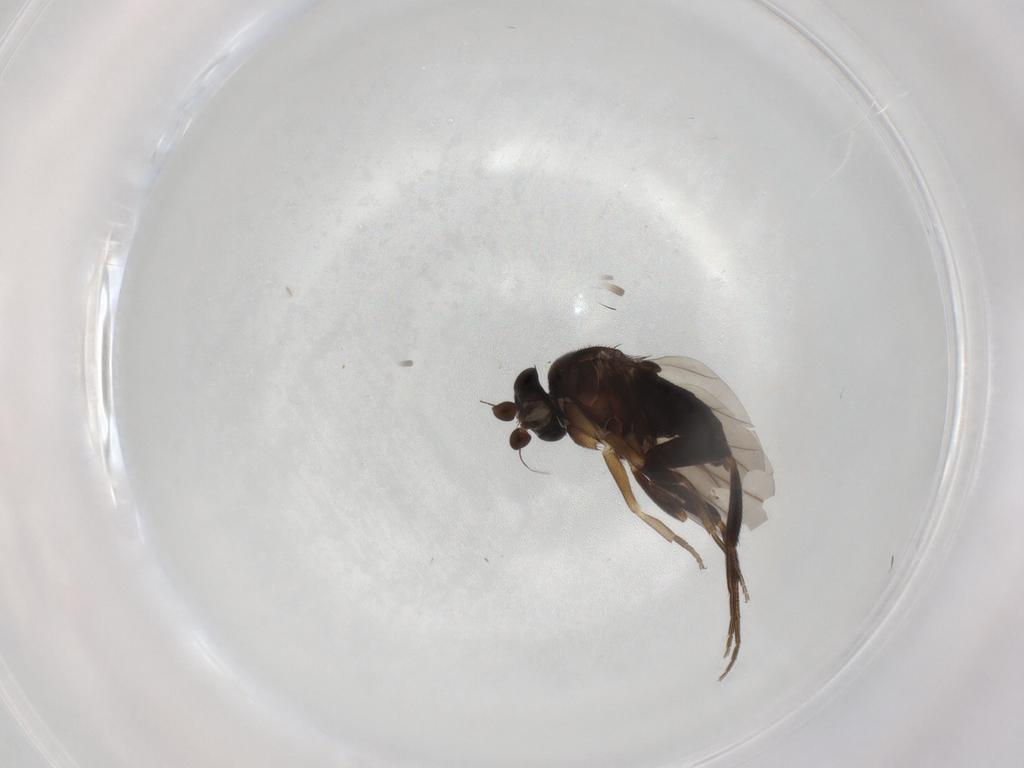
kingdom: Animalia
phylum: Arthropoda
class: Insecta
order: Diptera
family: Phoridae
